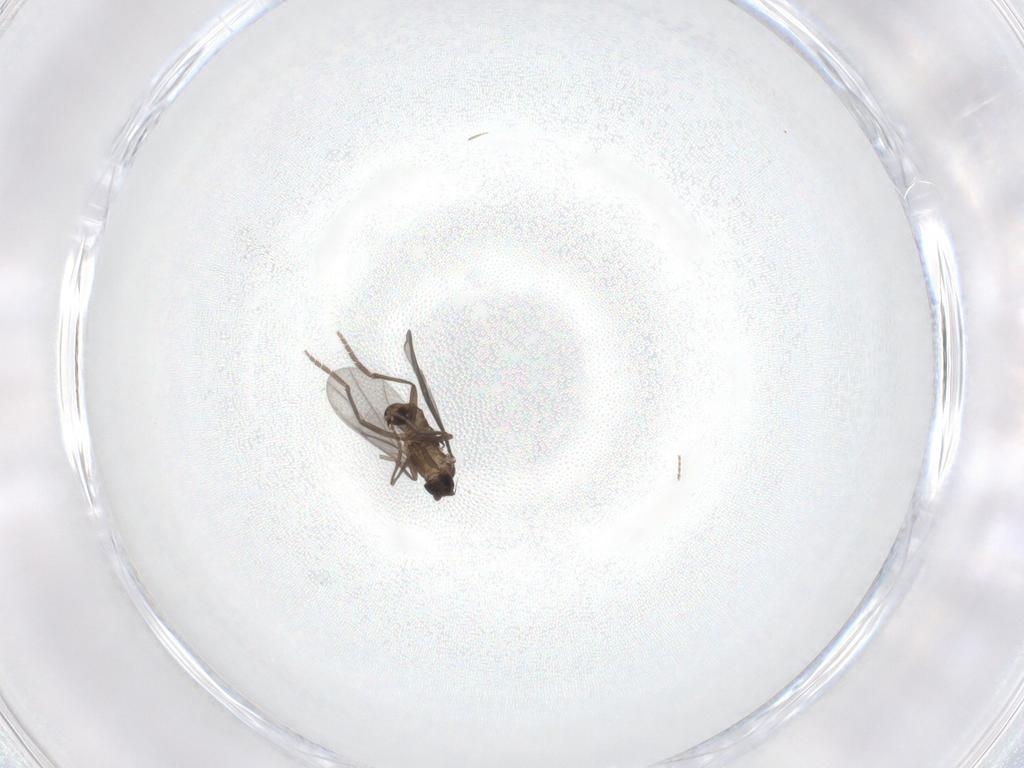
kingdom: Animalia
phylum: Arthropoda
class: Insecta
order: Diptera
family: Phoridae
